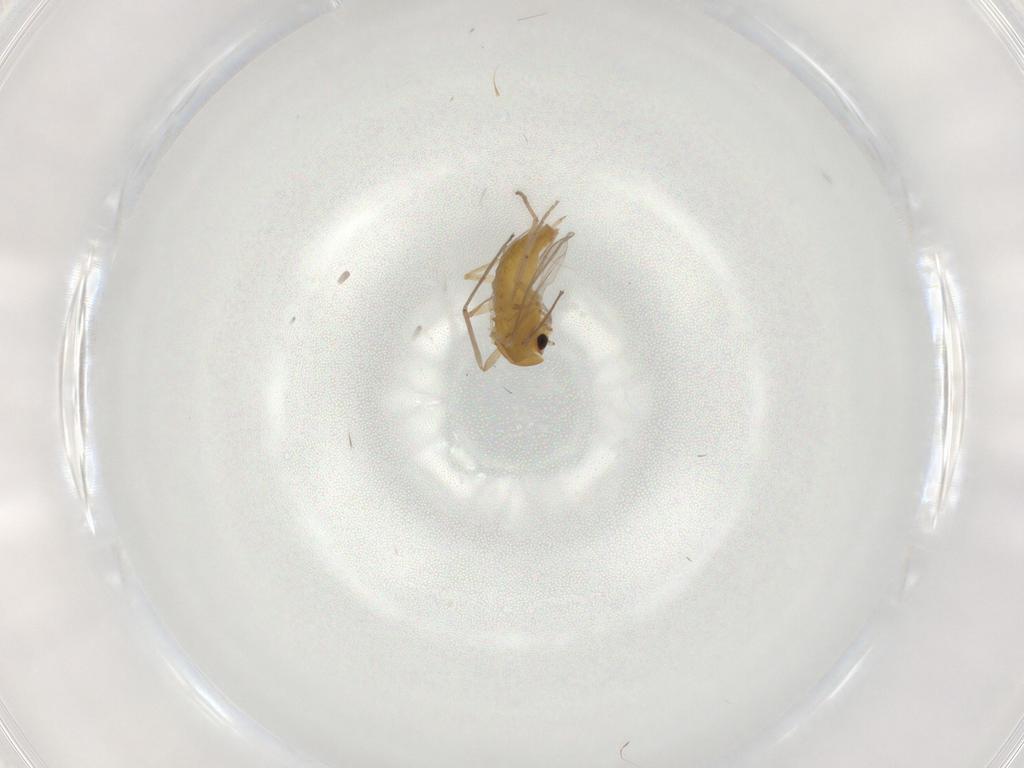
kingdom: Animalia
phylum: Arthropoda
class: Insecta
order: Diptera
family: Chironomidae
